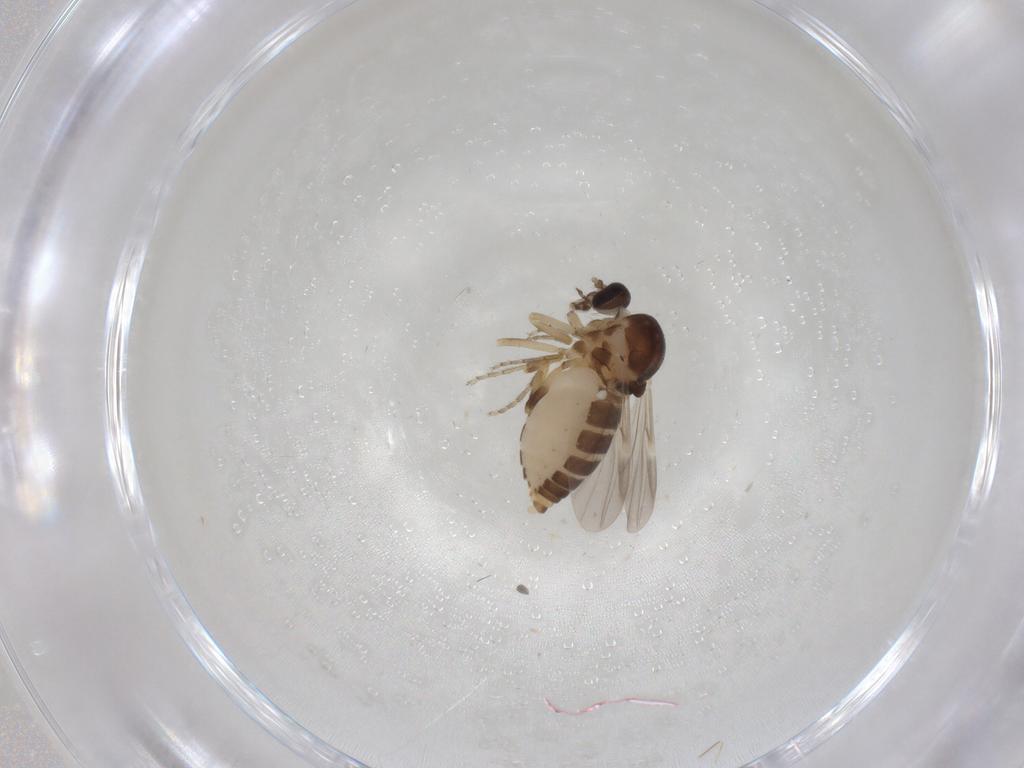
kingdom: Animalia
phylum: Arthropoda
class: Insecta
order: Diptera
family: Ceratopogonidae
